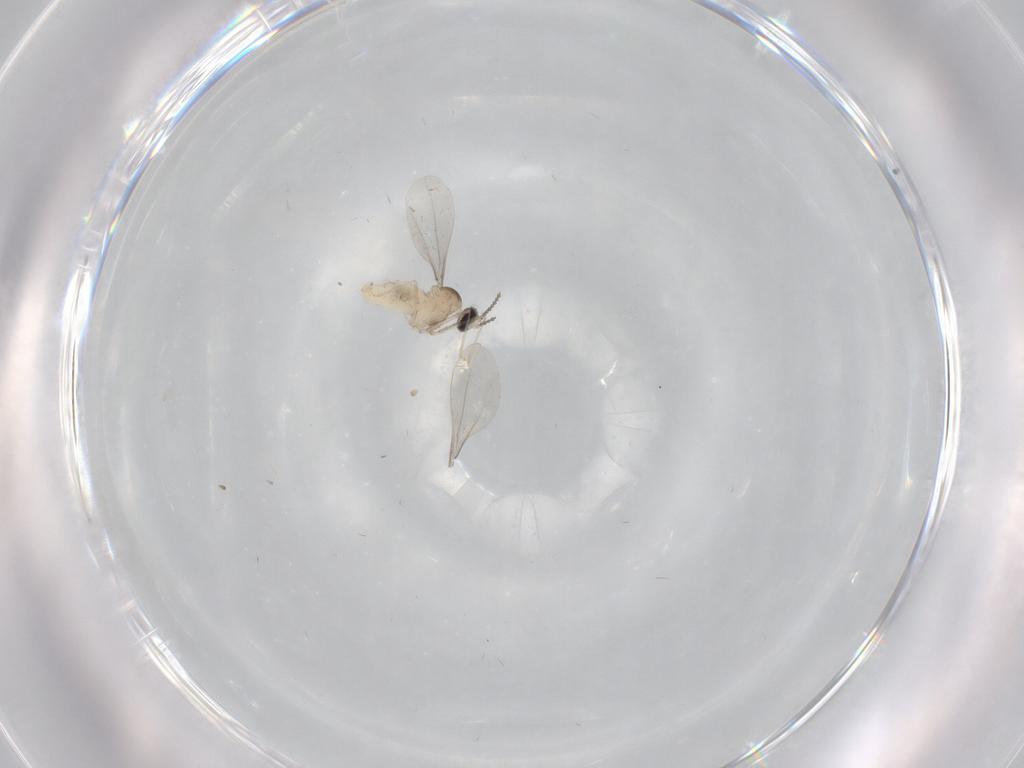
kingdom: Animalia
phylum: Arthropoda
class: Insecta
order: Diptera
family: Cecidomyiidae
